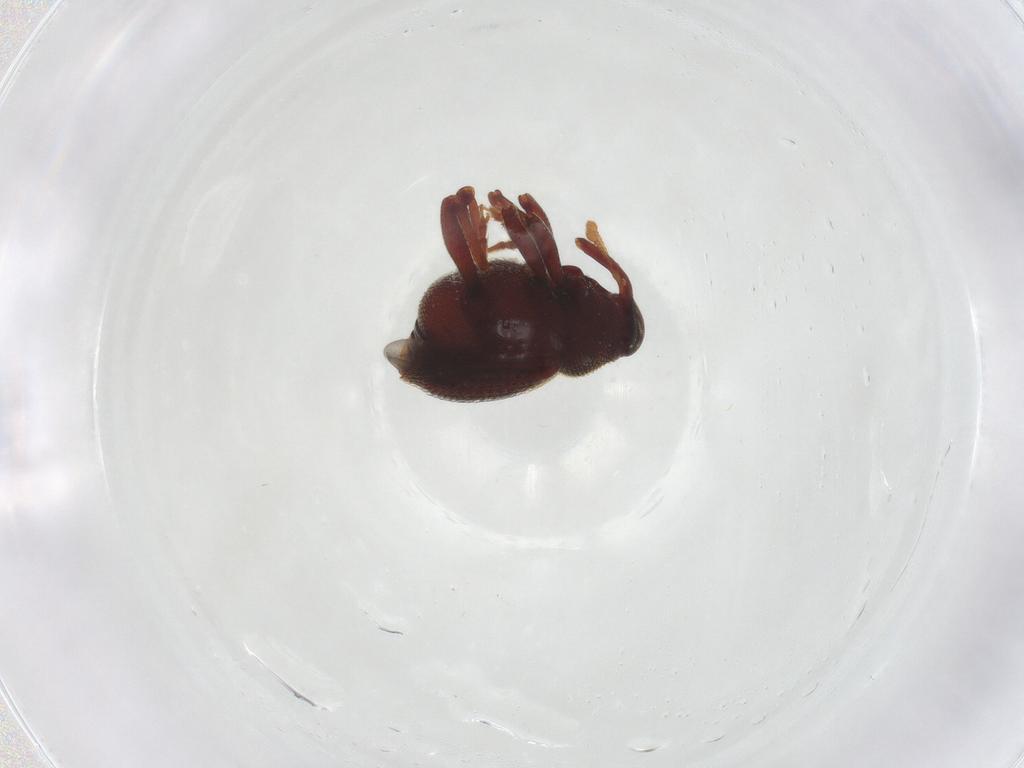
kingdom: Animalia
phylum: Arthropoda
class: Insecta
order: Coleoptera
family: Curculionidae
